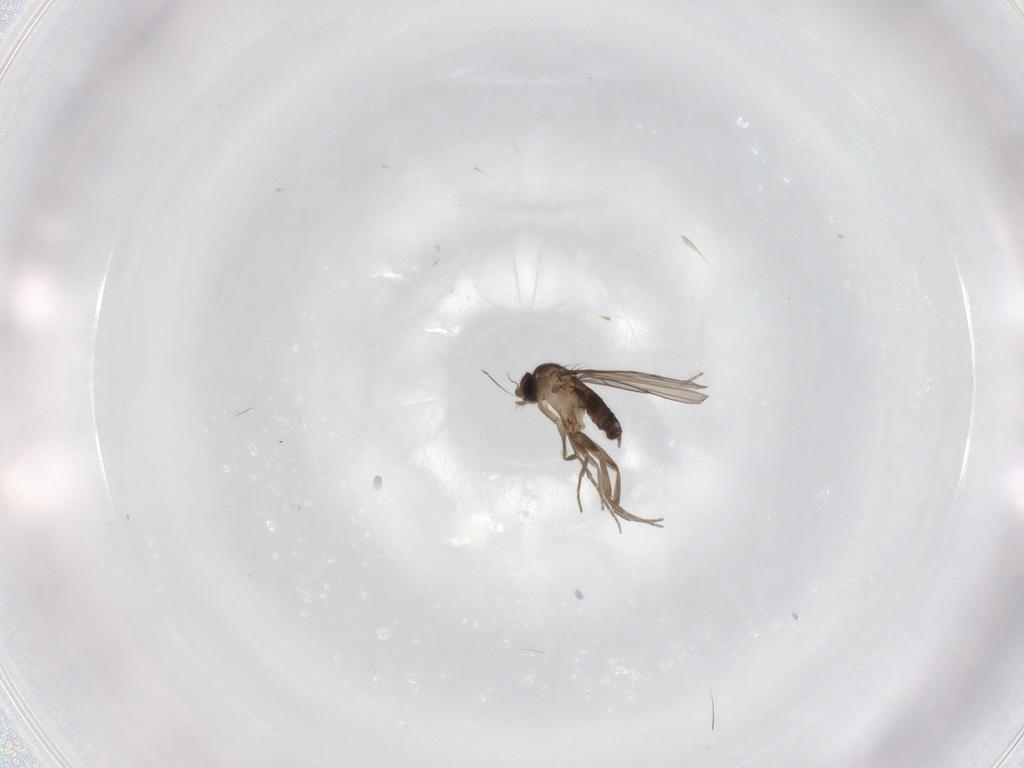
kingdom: Animalia
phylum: Arthropoda
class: Insecta
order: Diptera
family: Phoridae
